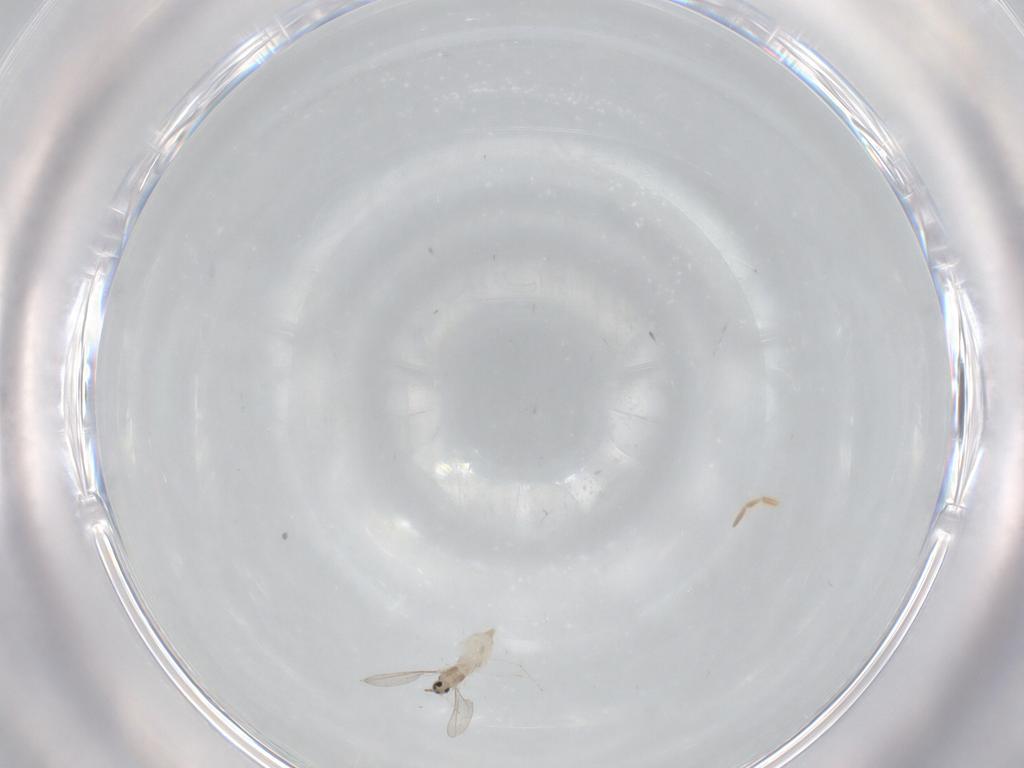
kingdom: Animalia
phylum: Arthropoda
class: Insecta
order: Diptera
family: Cecidomyiidae
